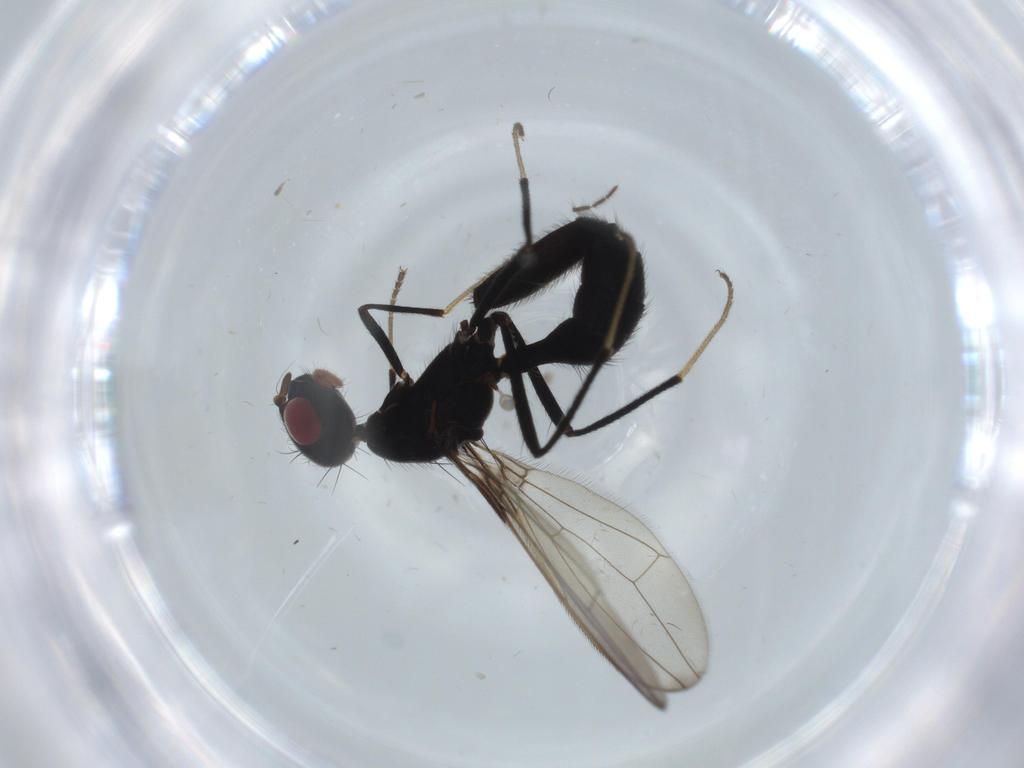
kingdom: Animalia
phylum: Arthropoda
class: Insecta
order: Diptera
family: Richardiidae
